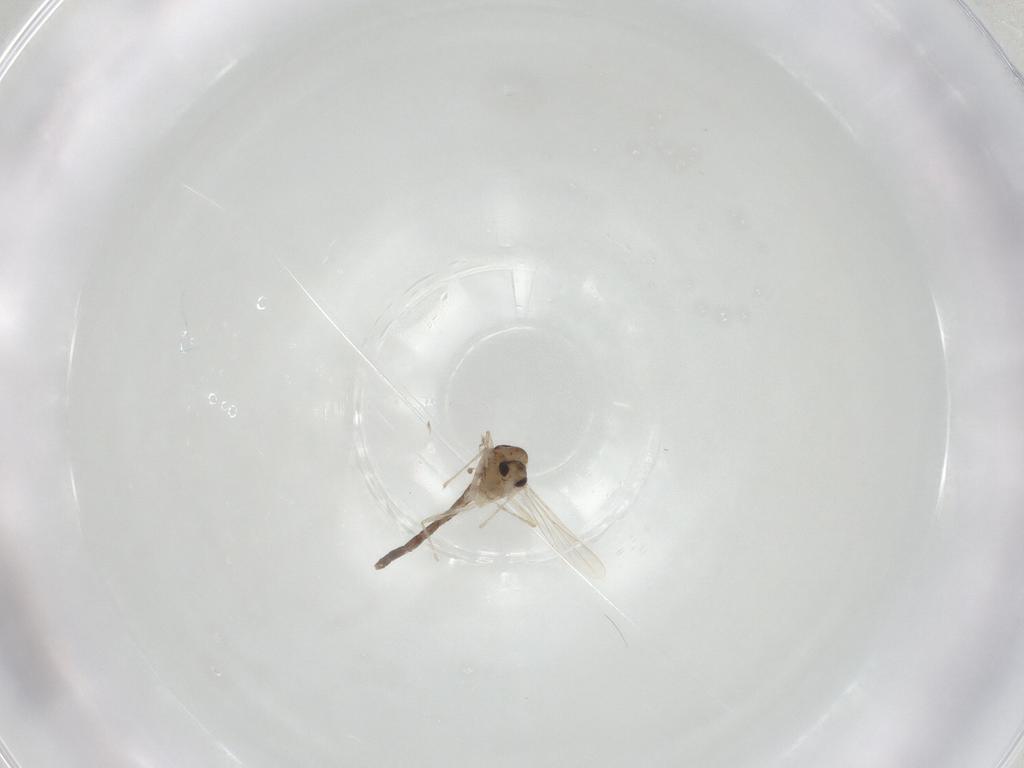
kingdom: Animalia
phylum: Arthropoda
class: Insecta
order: Diptera
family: Chironomidae
